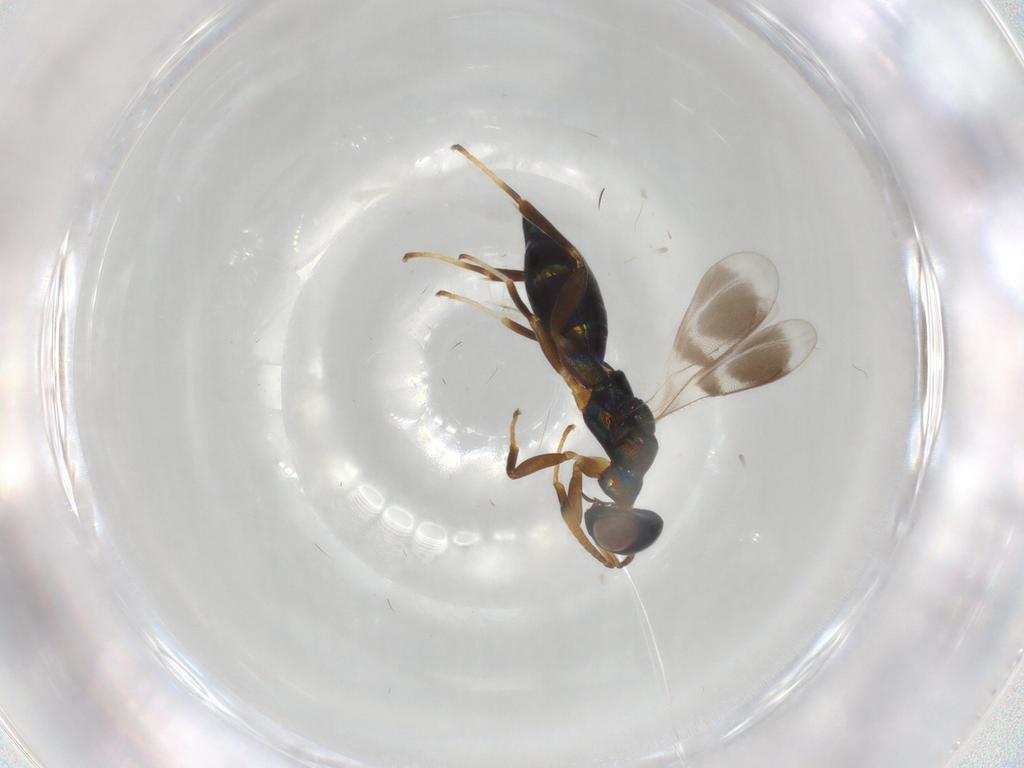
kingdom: Animalia
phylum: Arthropoda
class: Insecta
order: Hymenoptera
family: Cleonyminae
